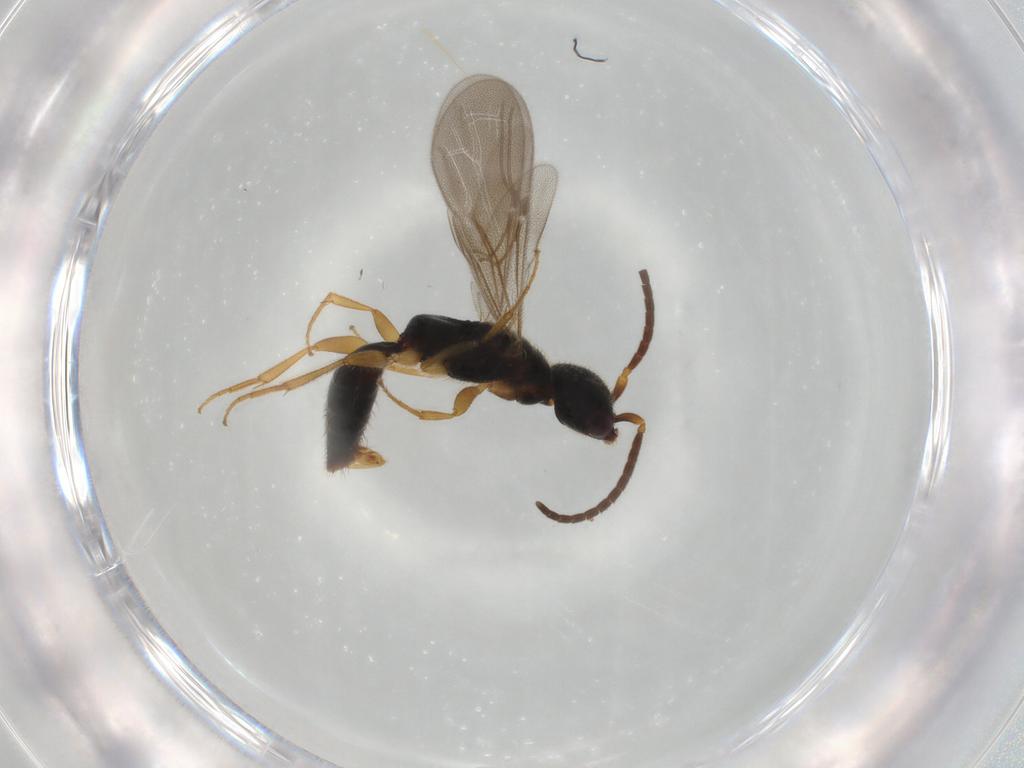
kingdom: Animalia
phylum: Arthropoda
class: Insecta
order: Hymenoptera
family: Bethylidae
